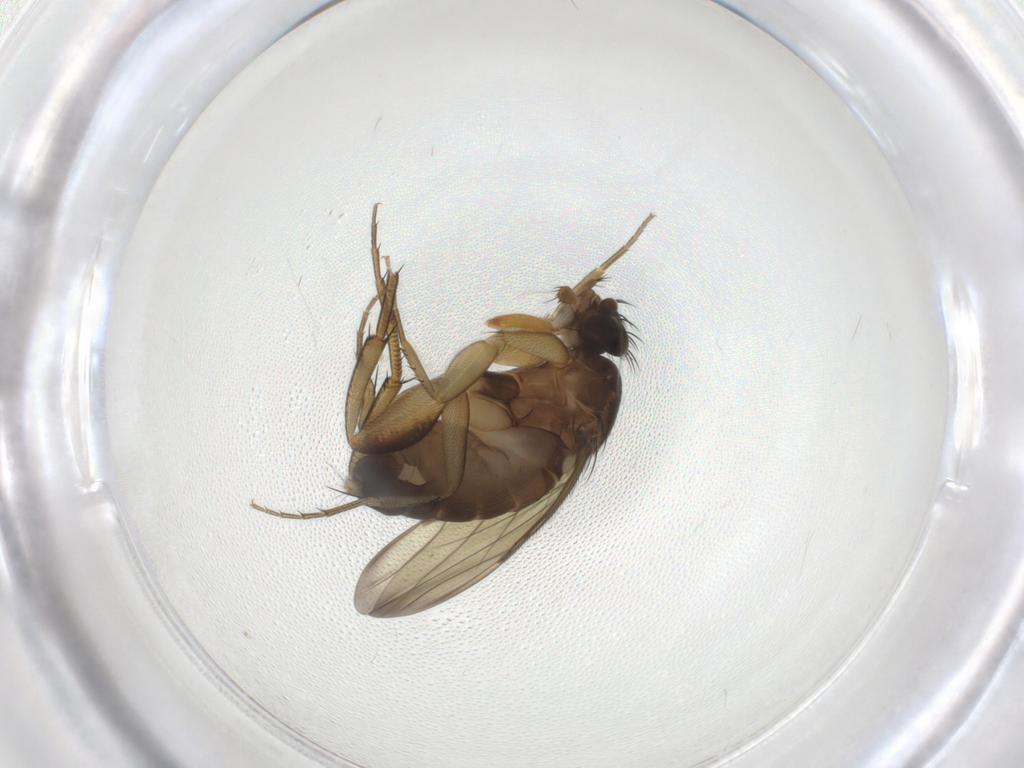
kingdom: Animalia
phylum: Arthropoda
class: Insecta
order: Diptera
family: Phoridae
